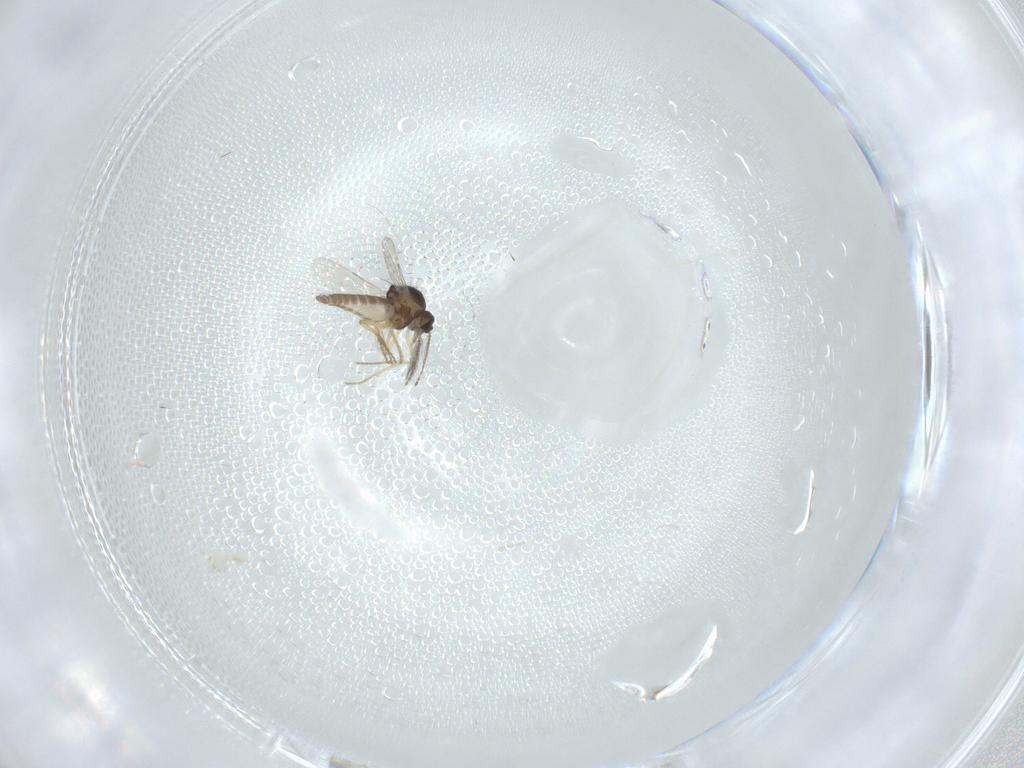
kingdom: Animalia
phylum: Arthropoda
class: Insecta
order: Diptera
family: Ceratopogonidae
